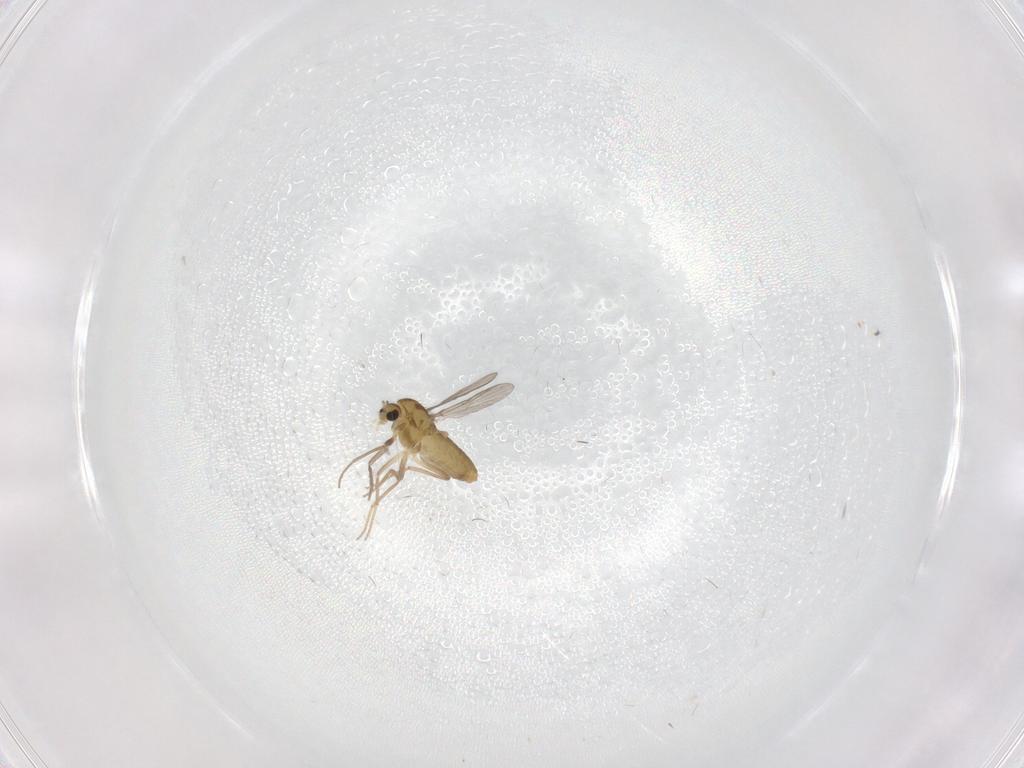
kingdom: Animalia
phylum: Arthropoda
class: Insecta
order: Diptera
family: Chironomidae
